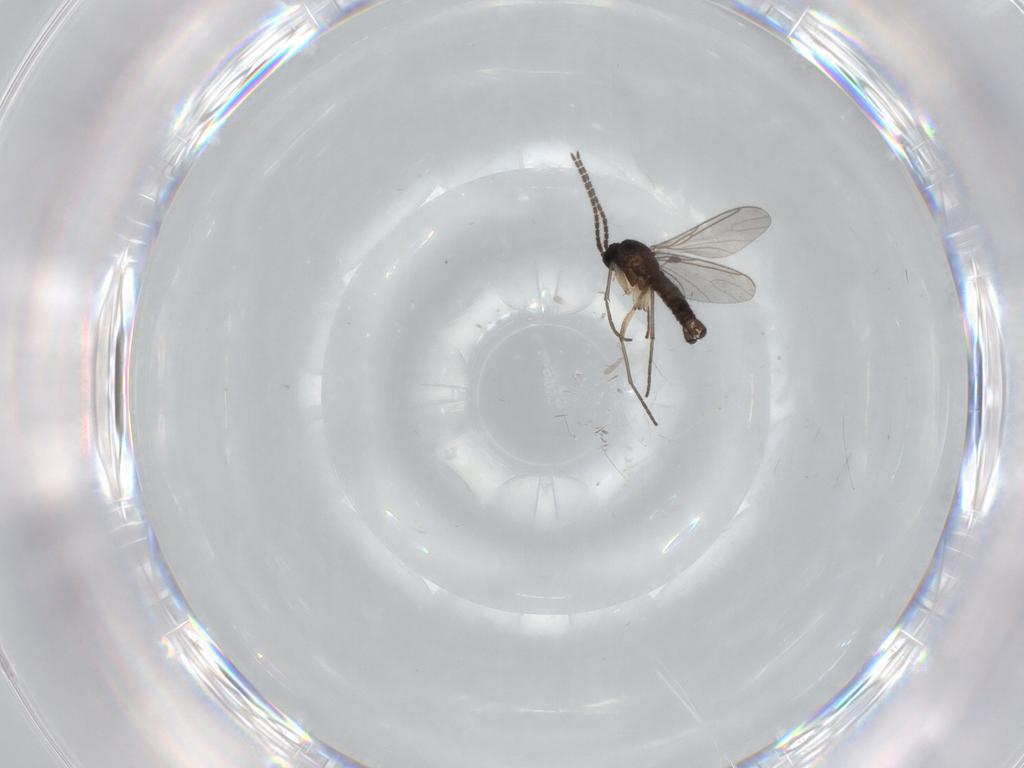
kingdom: Animalia
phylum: Arthropoda
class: Insecta
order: Diptera
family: Sciaridae
